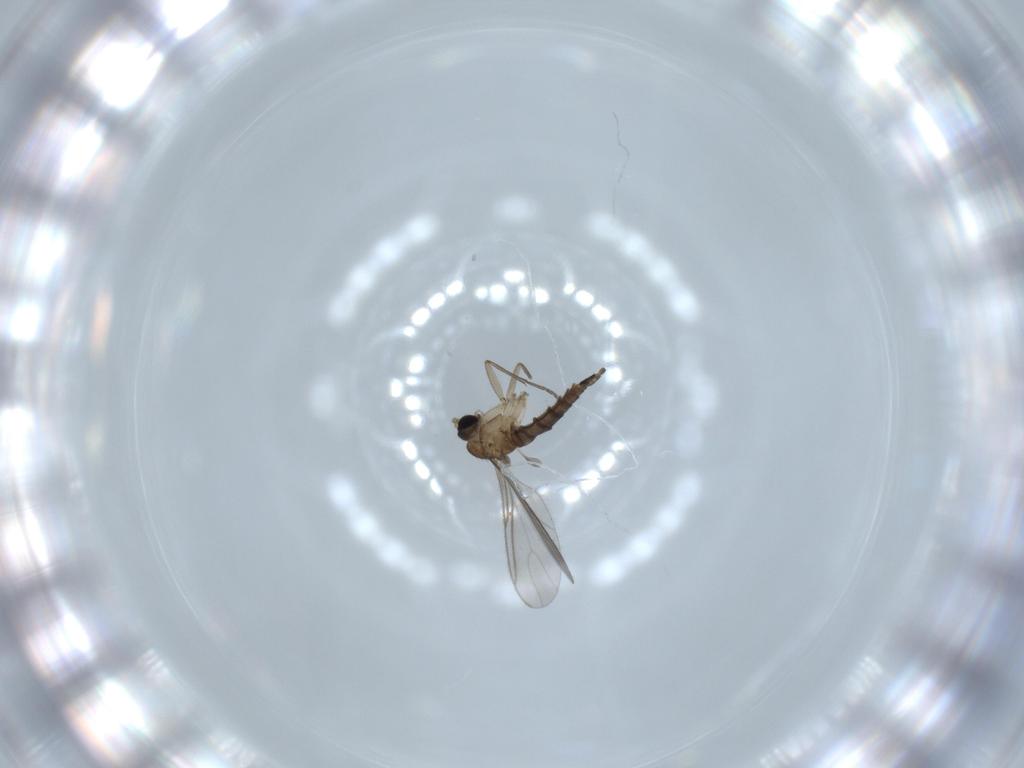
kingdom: Animalia
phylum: Arthropoda
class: Insecta
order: Diptera
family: Sciaridae
